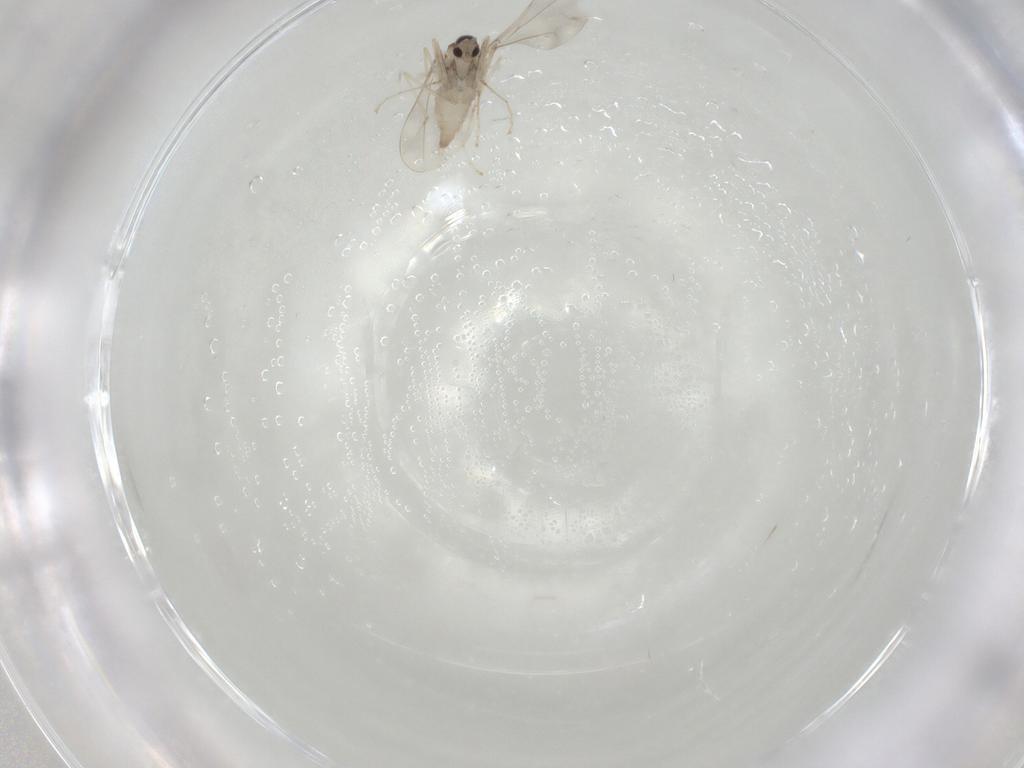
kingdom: Animalia
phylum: Arthropoda
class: Insecta
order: Diptera
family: Cecidomyiidae
